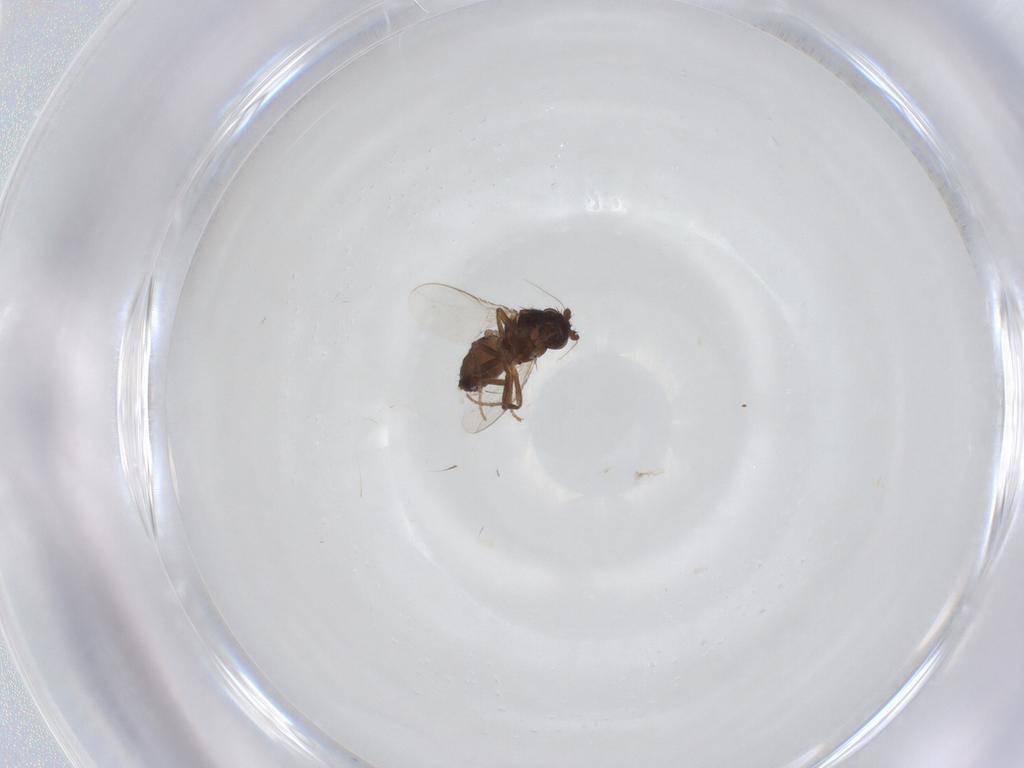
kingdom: Animalia
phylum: Arthropoda
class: Insecta
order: Diptera
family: Sphaeroceridae
